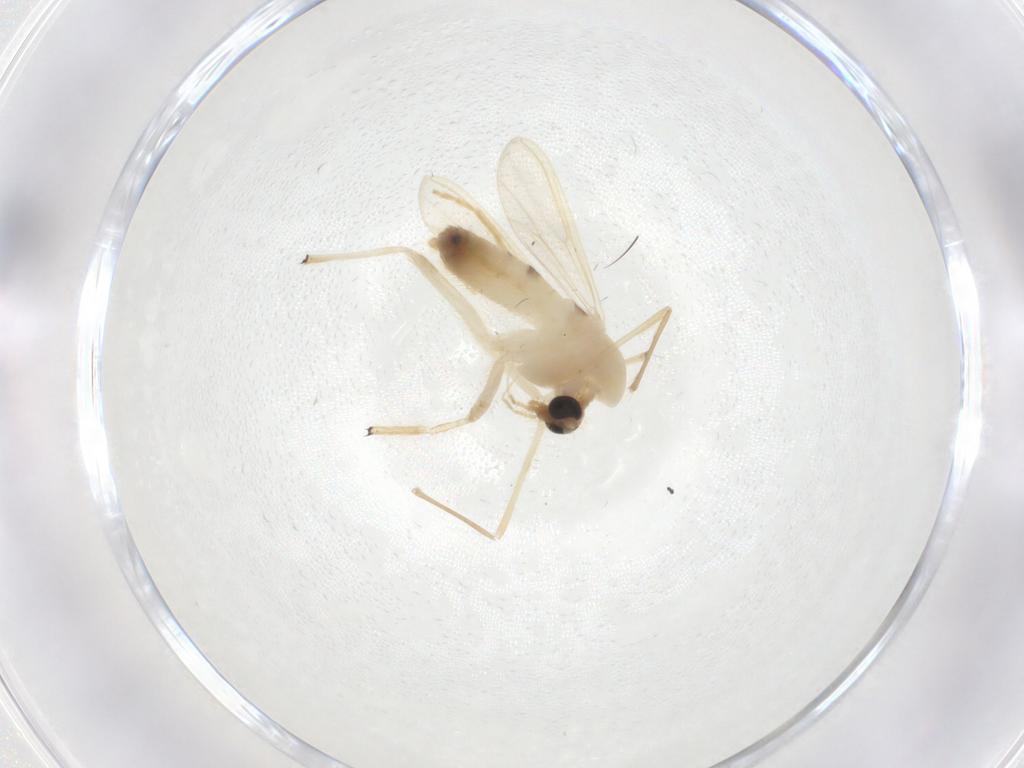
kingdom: Animalia
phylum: Arthropoda
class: Insecta
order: Diptera
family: Chironomidae
